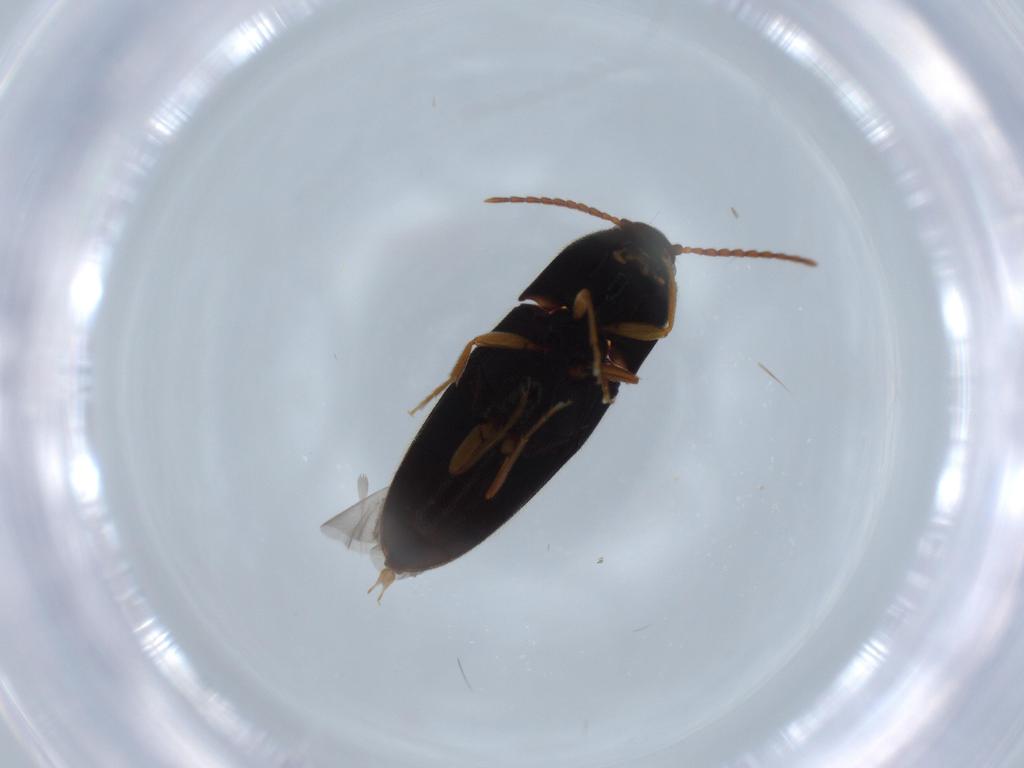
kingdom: Animalia
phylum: Arthropoda
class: Insecta
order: Coleoptera
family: Elateridae
